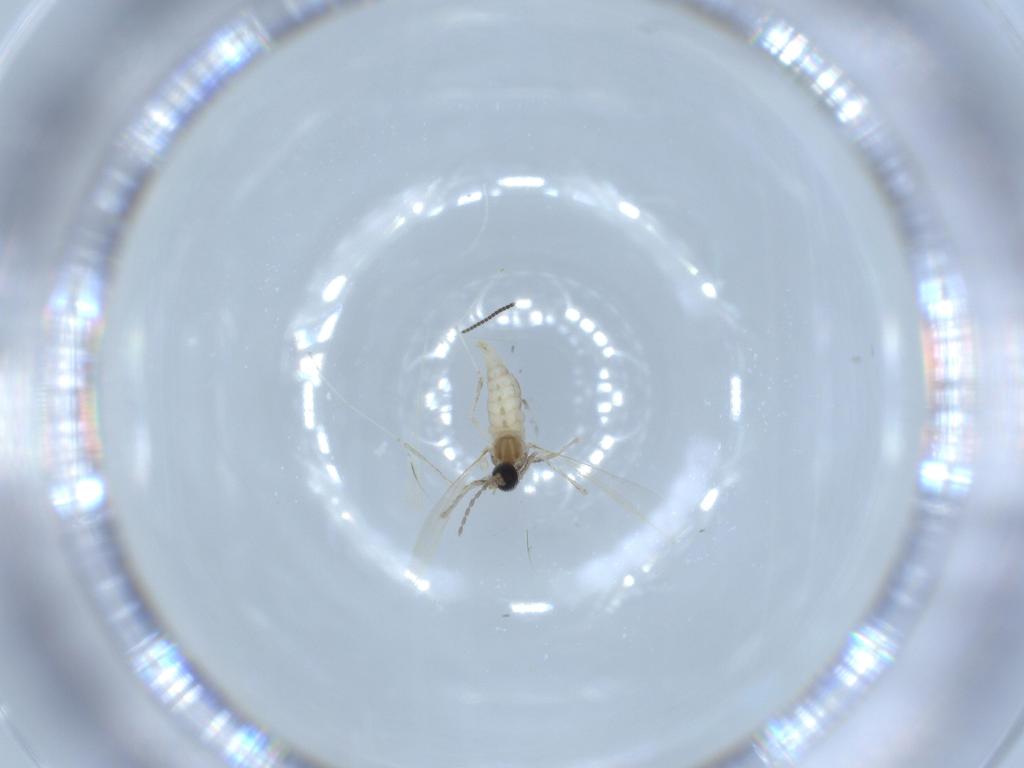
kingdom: Animalia
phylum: Arthropoda
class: Insecta
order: Diptera
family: Cecidomyiidae
